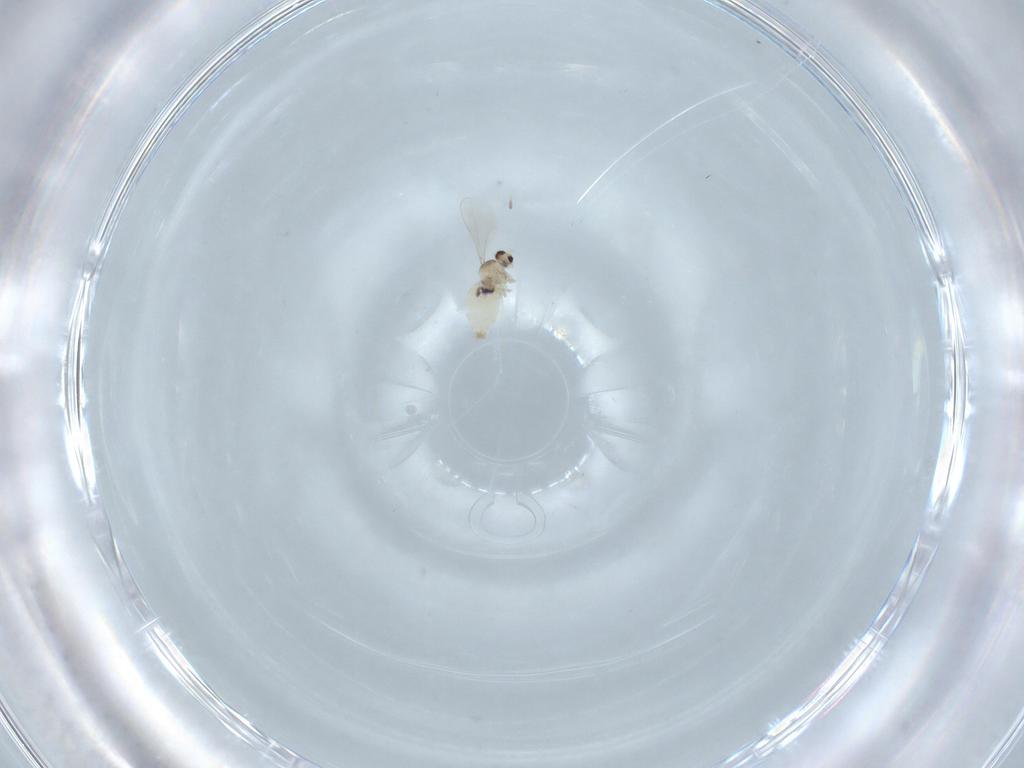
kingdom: Animalia
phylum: Arthropoda
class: Insecta
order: Diptera
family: Cecidomyiidae
